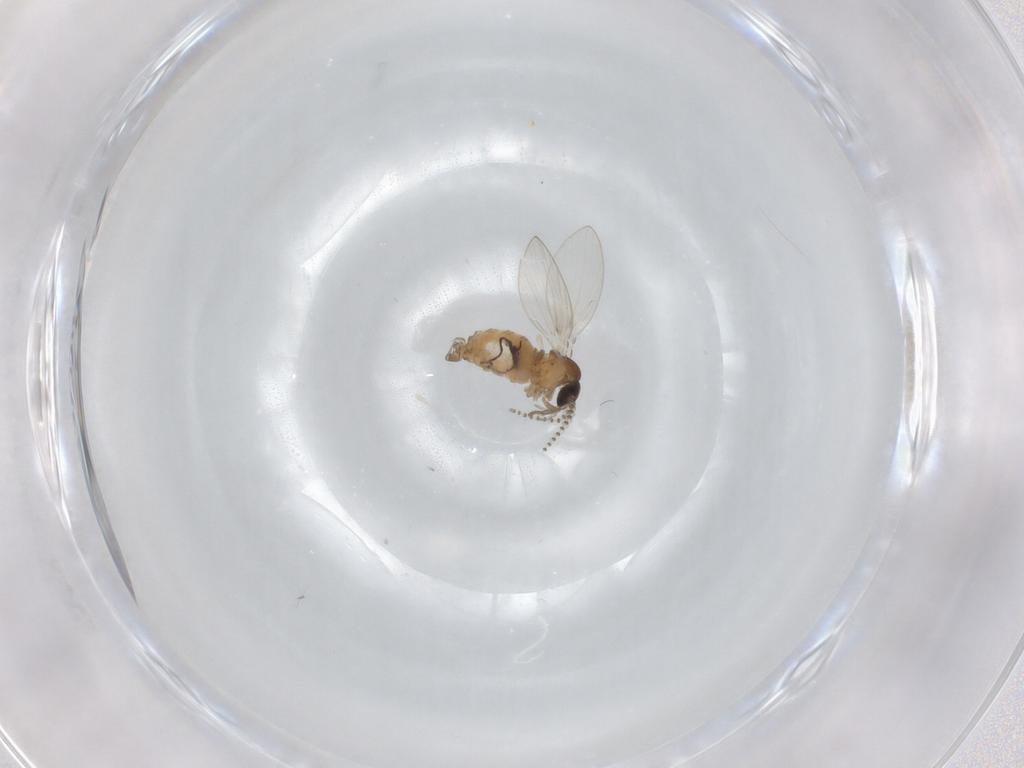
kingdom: Animalia
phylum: Arthropoda
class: Insecta
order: Diptera
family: Psychodidae
